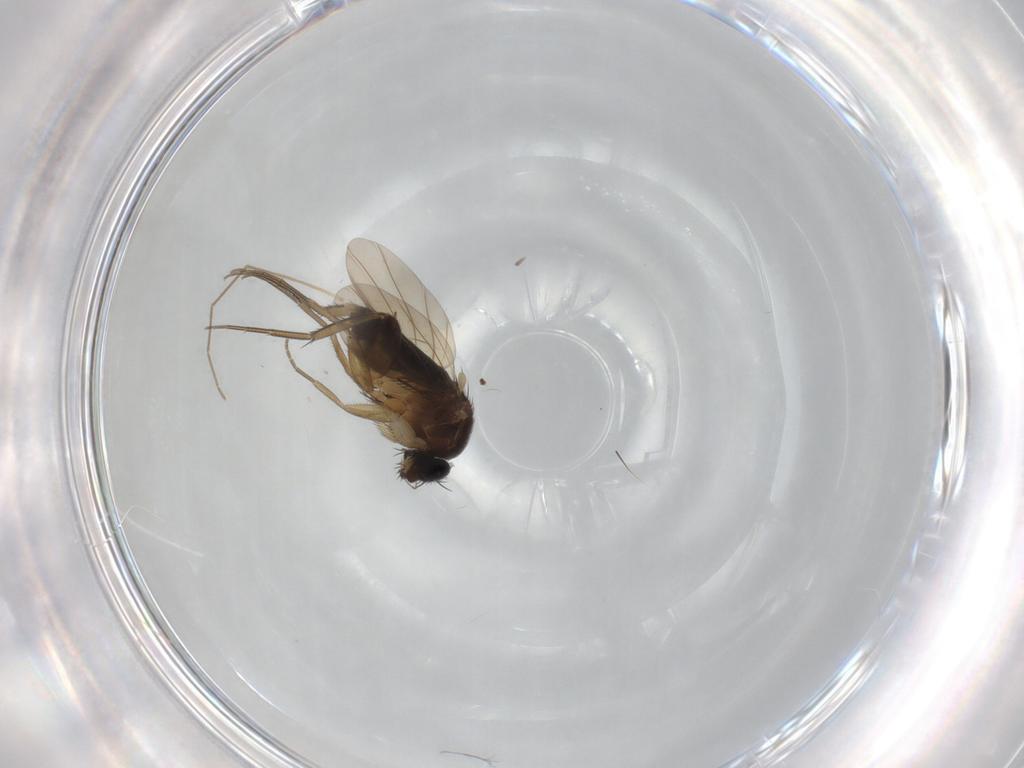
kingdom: Animalia
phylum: Arthropoda
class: Insecta
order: Diptera
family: Phoridae
